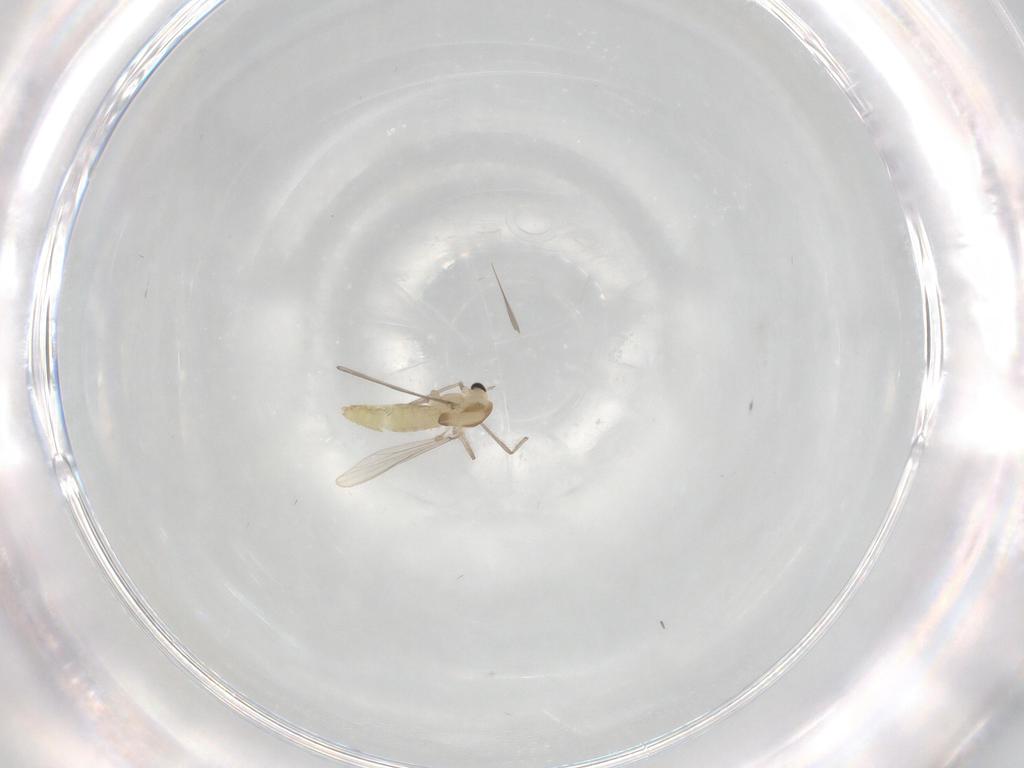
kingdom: Animalia
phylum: Arthropoda
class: Insecta
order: Diptera
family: Chironomidae
